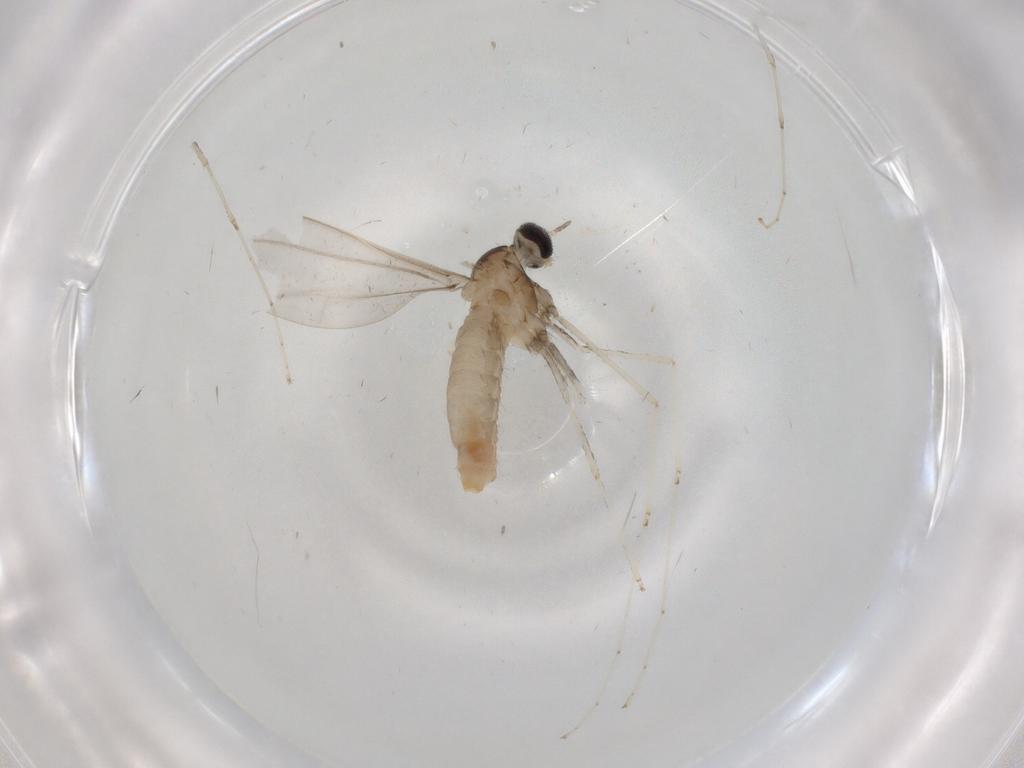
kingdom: Animalia
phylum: Arthropoda
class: Insecta
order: Diptera
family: Cecidomyiidae
